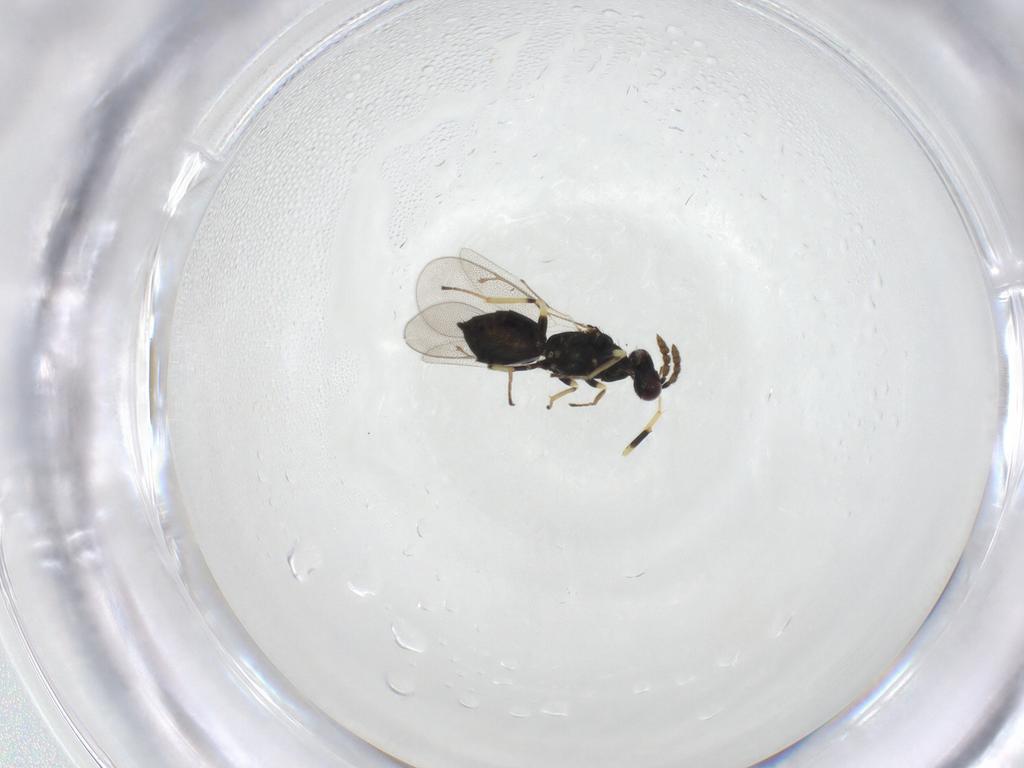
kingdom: Animalia
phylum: Arthropoda
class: Insecta
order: Hymenoptera
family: Eulophidae
